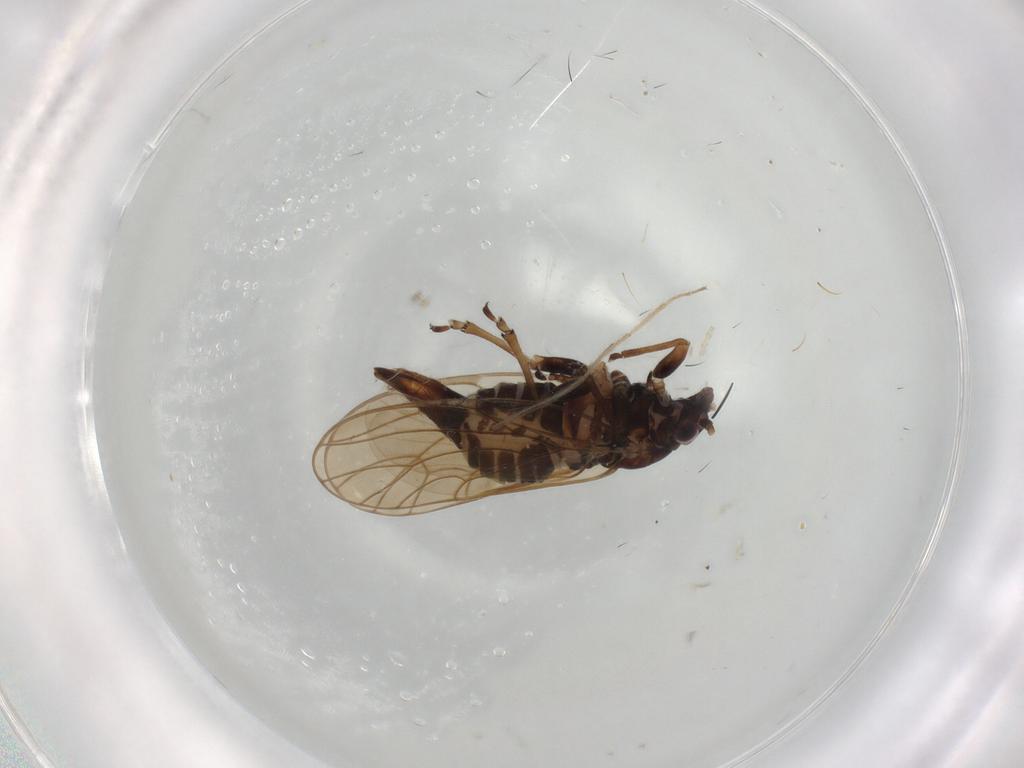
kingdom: Animalia
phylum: Arthropoda
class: Insecta
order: Hemiptera
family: Psyllidae
